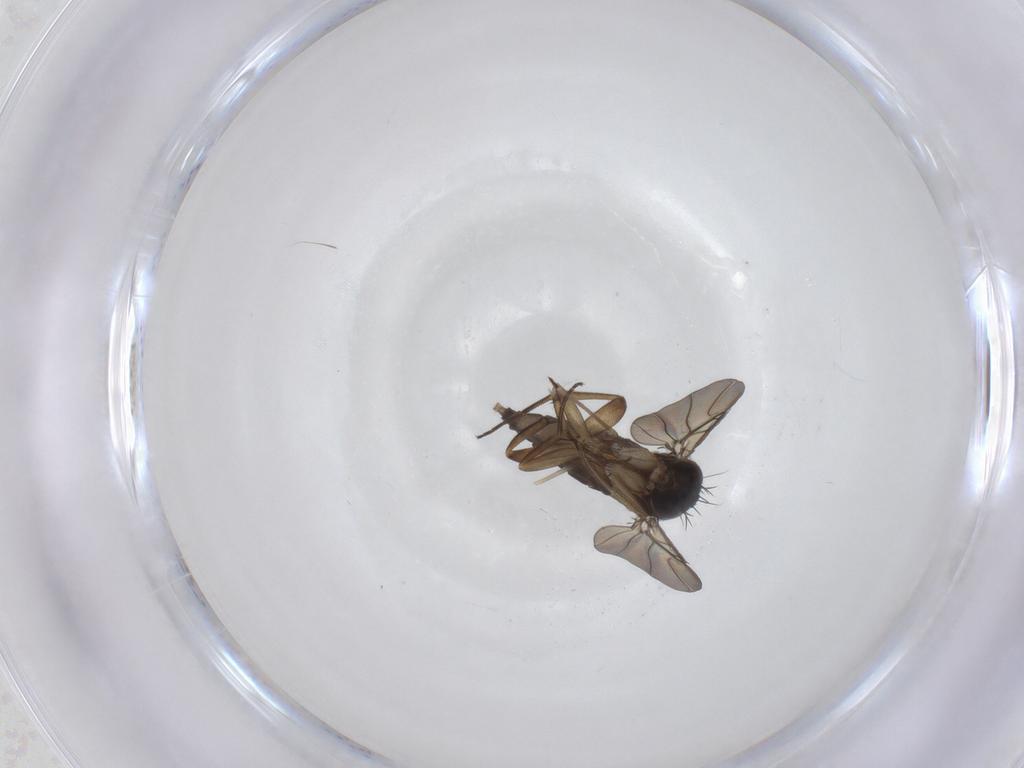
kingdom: Animalia
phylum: Arthropoda
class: Insecta
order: Diptera
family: Phoridae
